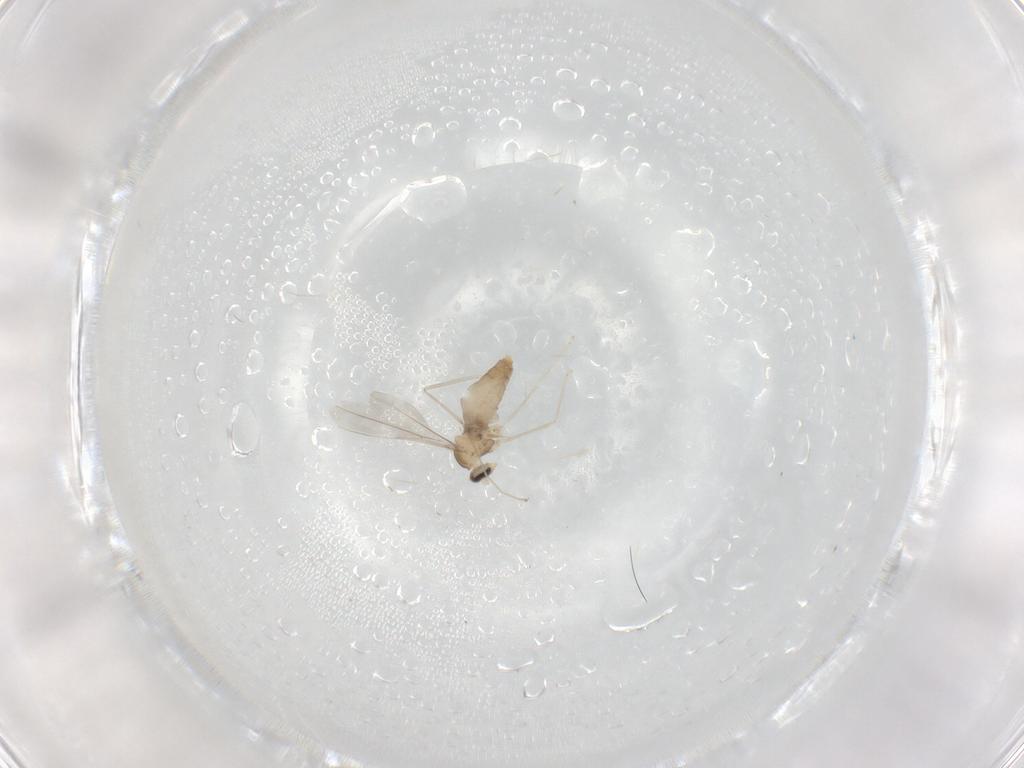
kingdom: Animalia
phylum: Arthropoda
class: Insecta
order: Diptera
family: Cecidomyiidae
